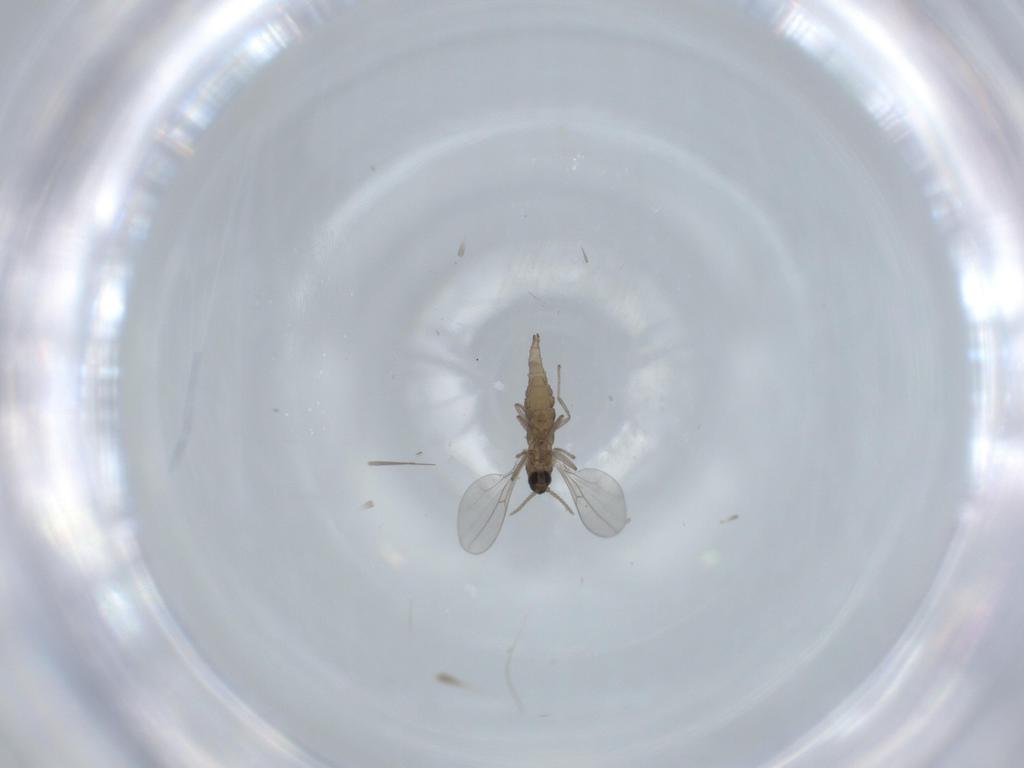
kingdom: Animalia
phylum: Arthropoda
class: Insecta
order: Diptera
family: Cecidomyiidae
